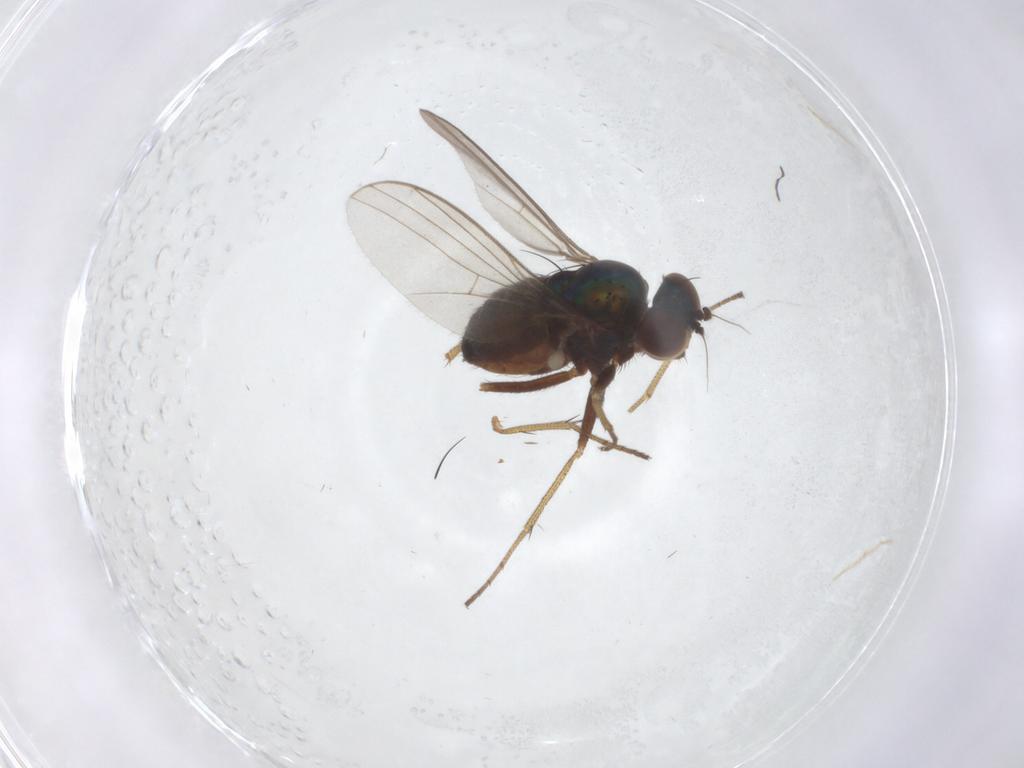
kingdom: Animalia
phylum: Arthropoda
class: Insecta
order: Diptera
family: Dolichopodidae
